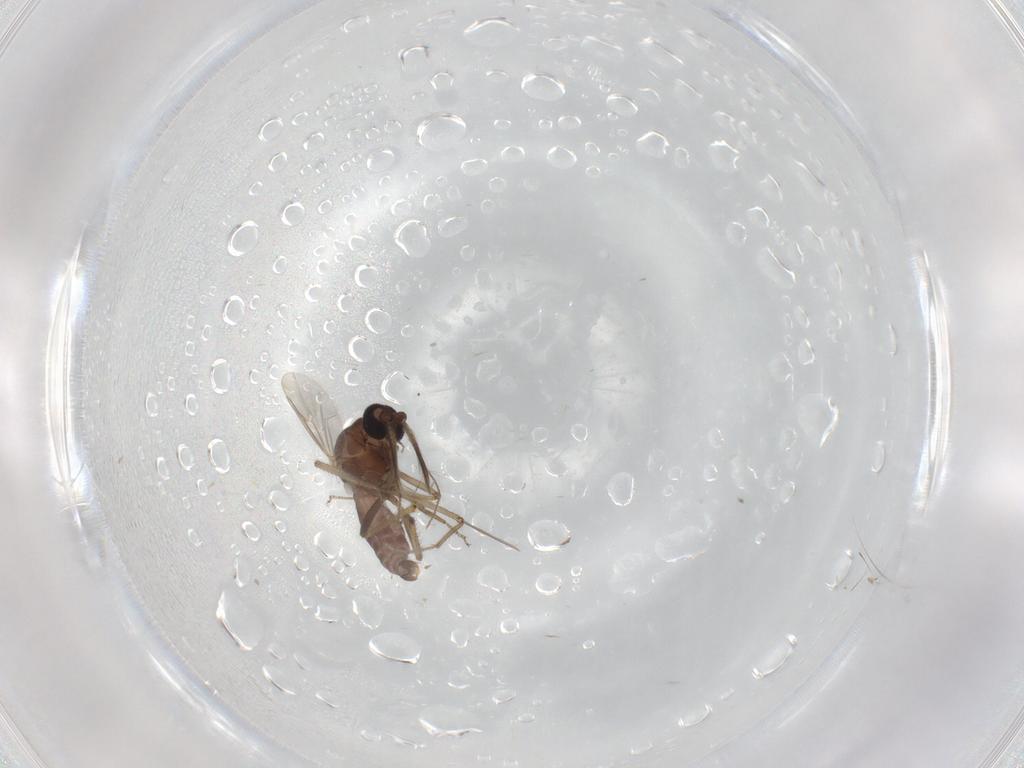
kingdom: Animalia
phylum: Arthropoda
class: Insecta
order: Diptera
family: Ceratopogonidae
